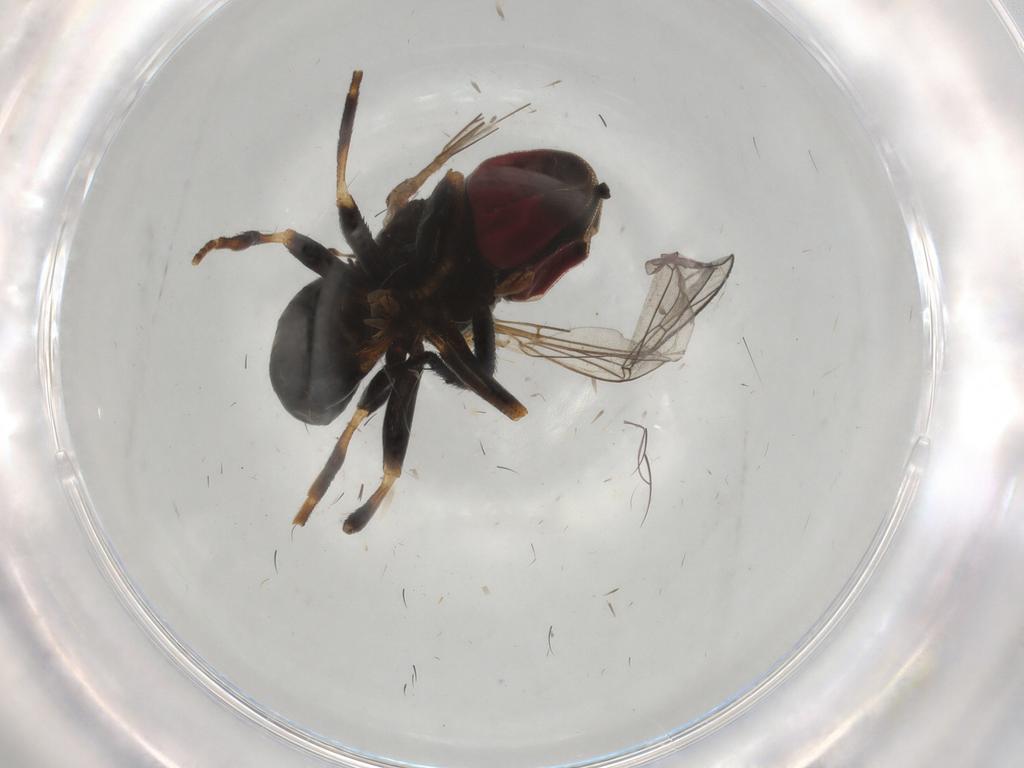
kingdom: Animalia
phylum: Arthropoda
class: Insecta
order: Diptera
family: Pipunculidae
